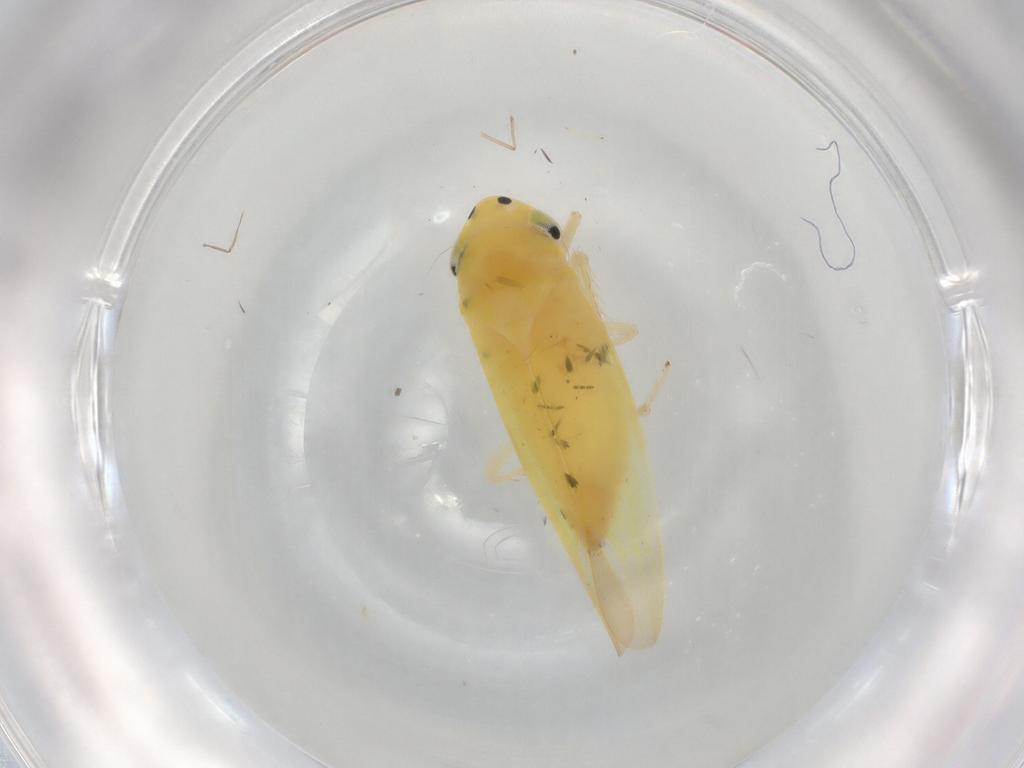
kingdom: Animalia
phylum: Arthropoda
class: Insecta
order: Hemiptera
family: Cicadellidae
